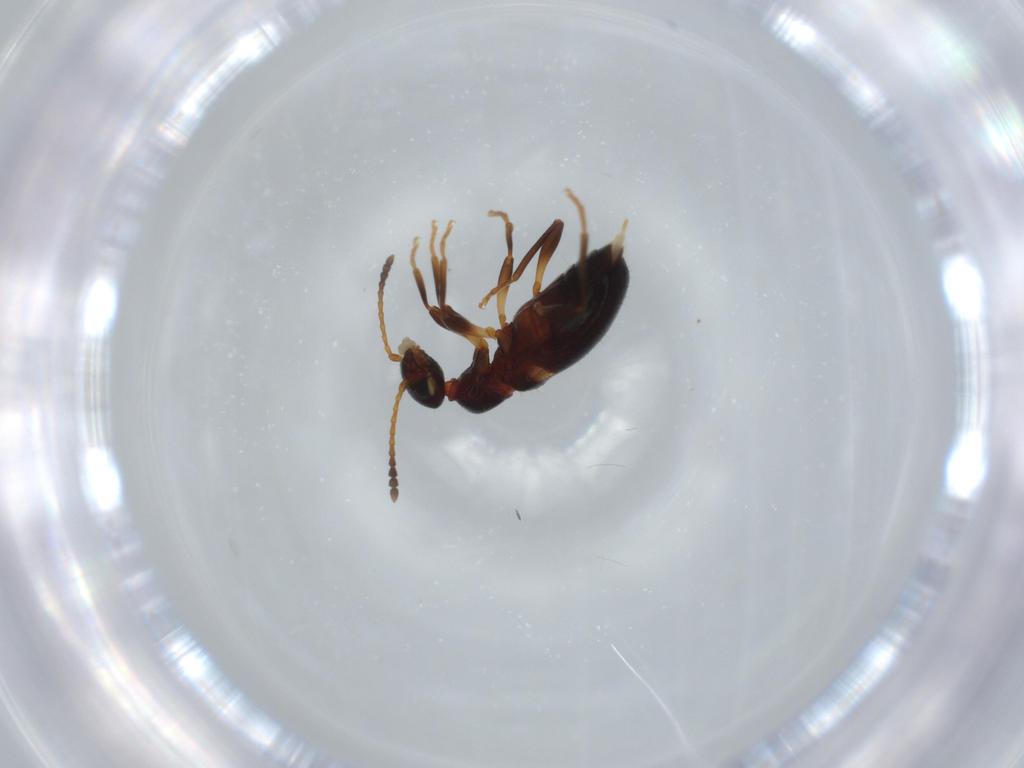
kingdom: Animalia
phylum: Arthropoda
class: Insecta
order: Coleoptera
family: Anthicidae
